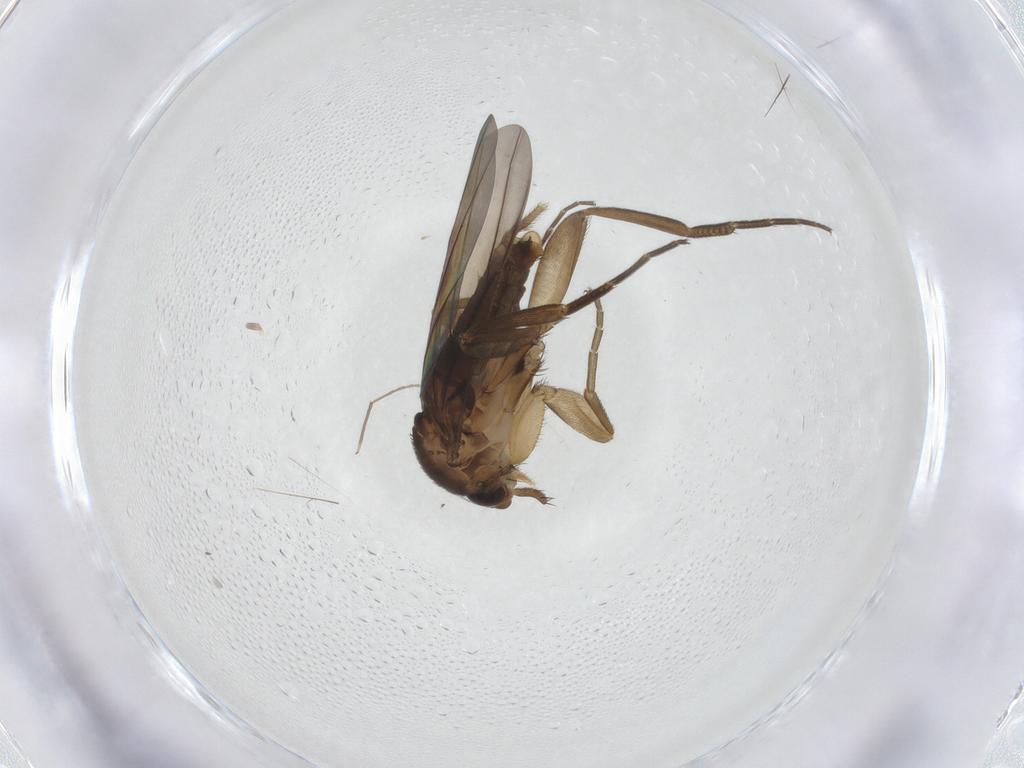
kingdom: Animalia
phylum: Arthropoda
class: Insecta
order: Diptera
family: Phoridae
